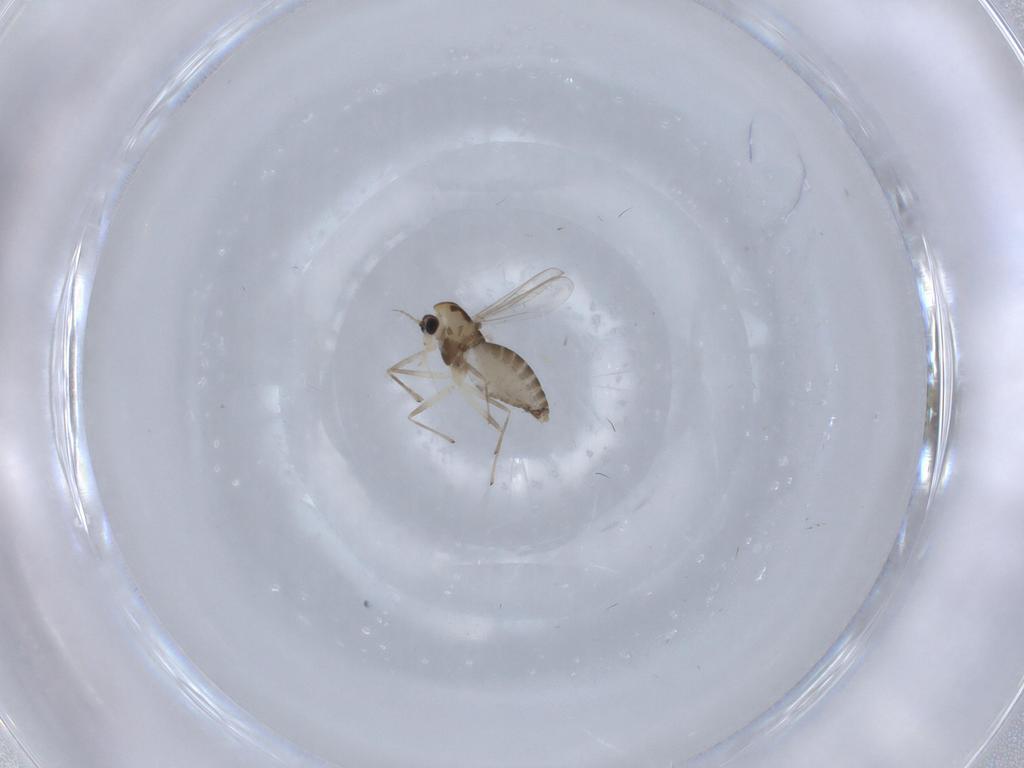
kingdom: Animalia
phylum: Arthropoda
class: Insecta
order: Diptera
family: Chironomidae
